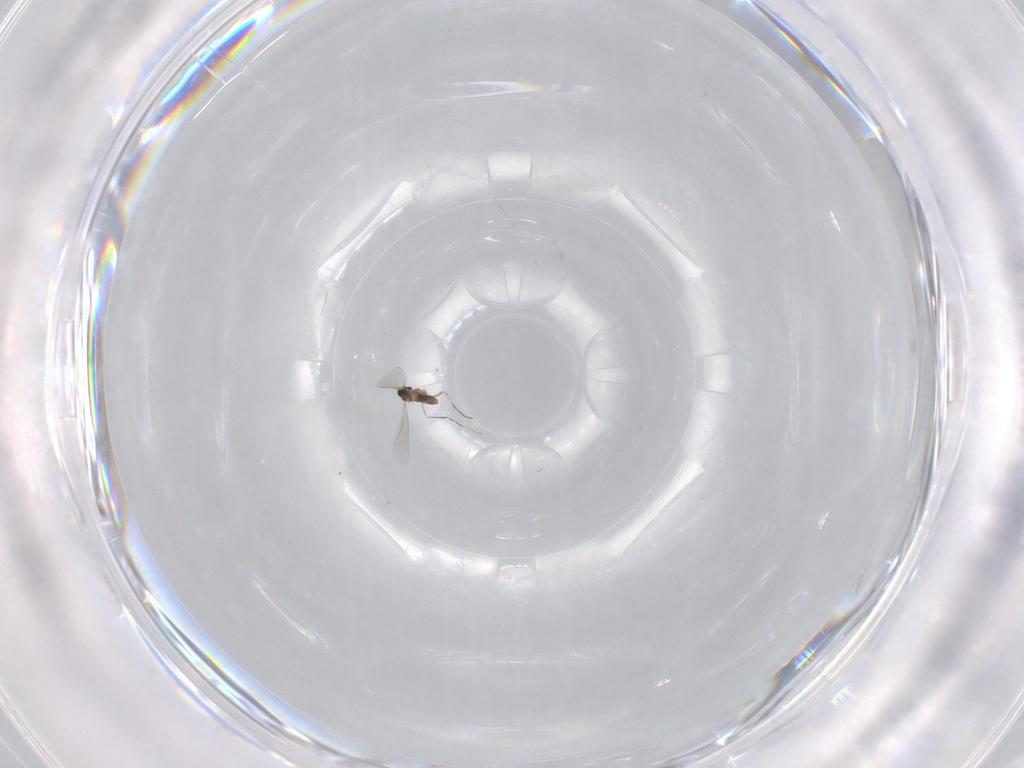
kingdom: Animalia
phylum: Arthropoda
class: Insecta
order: Diptera
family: Cecidomyiidae
